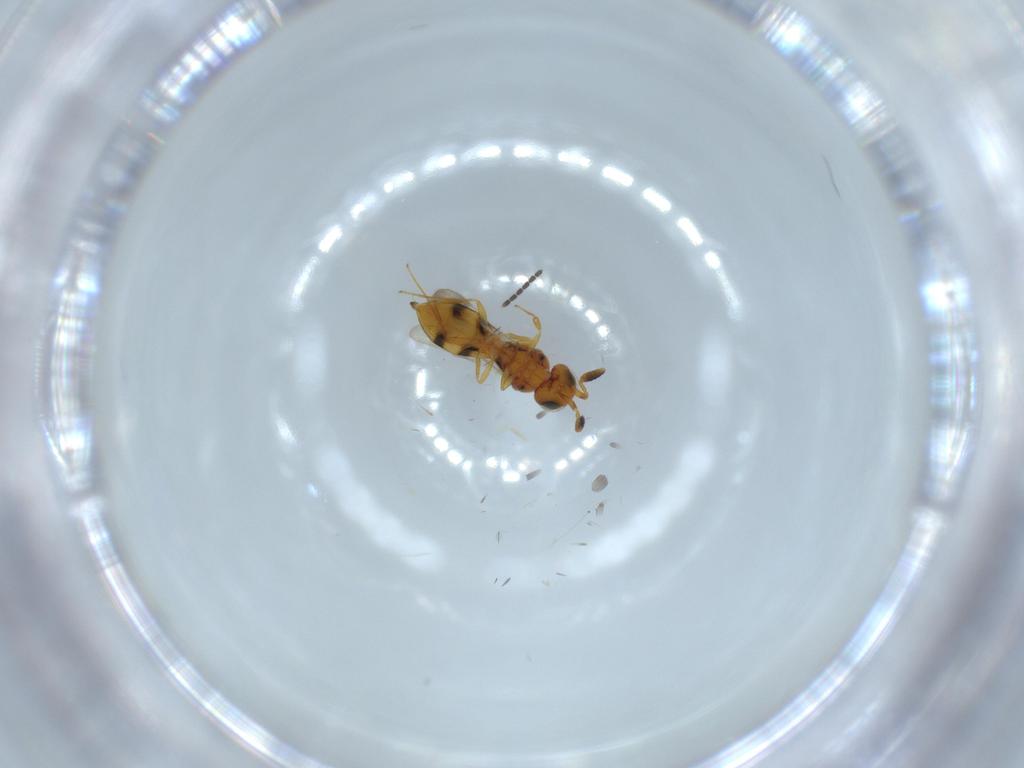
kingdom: Animalia
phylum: Arthropoda
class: Insecta
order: Hymenoptera
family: Scelionidae
